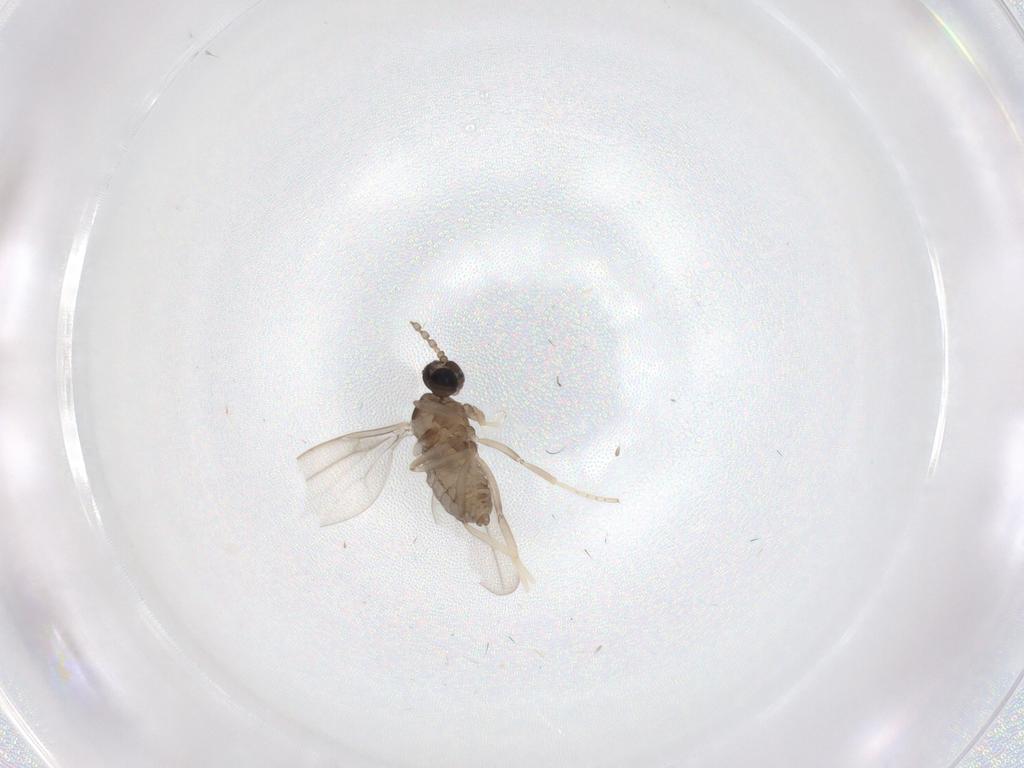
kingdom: Animalia
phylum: Arthropoda
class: Insecta
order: Diptera
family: Cecidomyiidae
